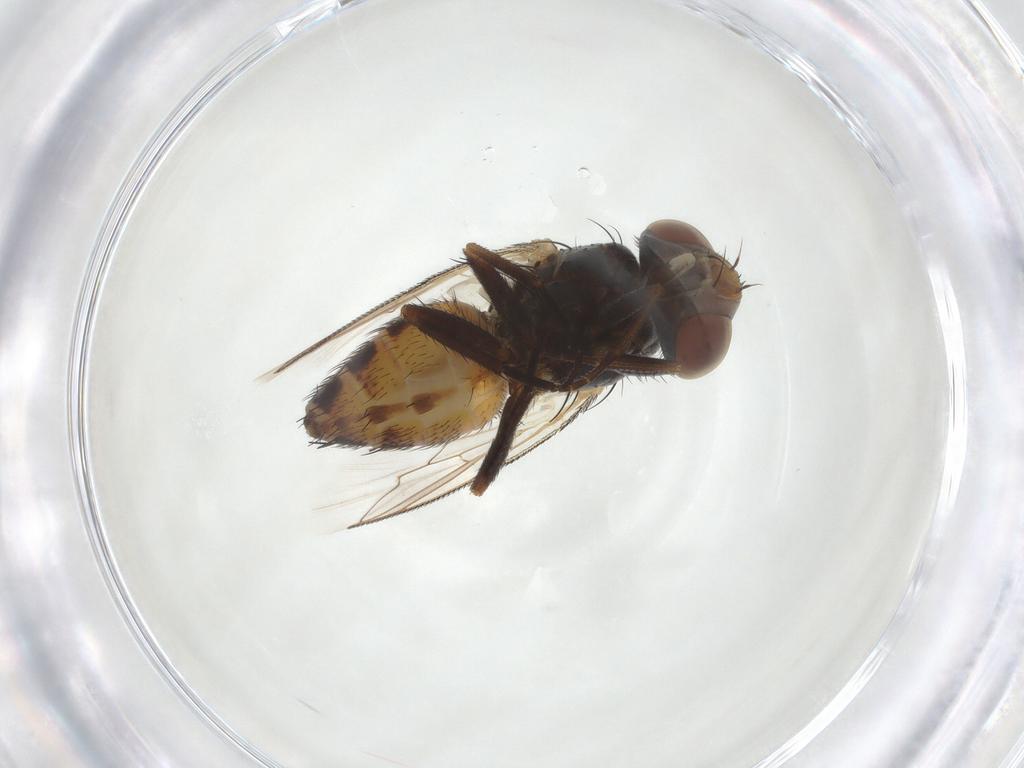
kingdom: Animalia
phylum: Arthropoda
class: Insecta
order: Diptera
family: Sarcophagidae
